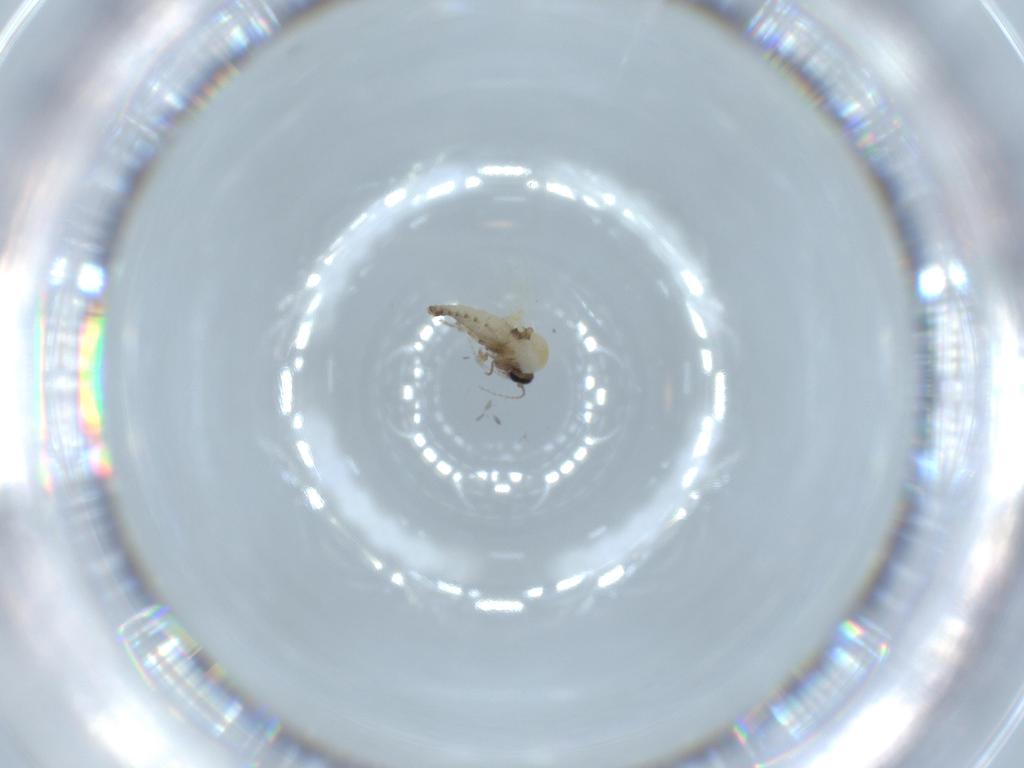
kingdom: Animalia
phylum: Arthropoda
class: Insecta
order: Diptera
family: Ceratopogonidae
